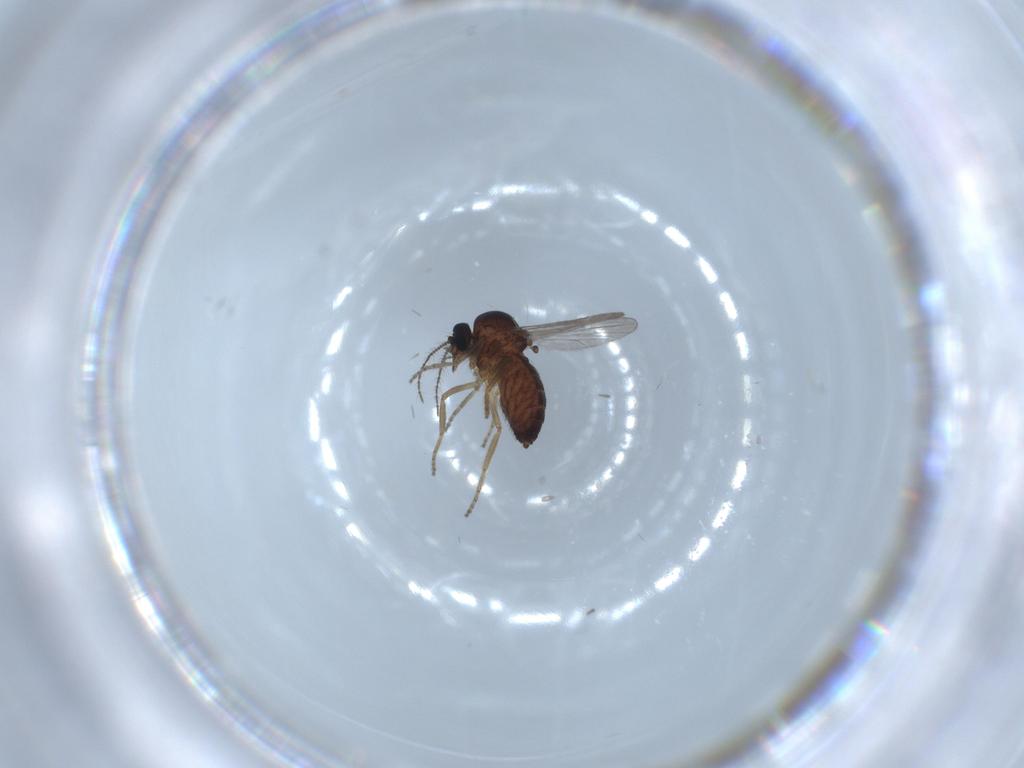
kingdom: Animalia
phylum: Arthropoda
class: Insecta
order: Diptera
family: Ceratopogonidae
